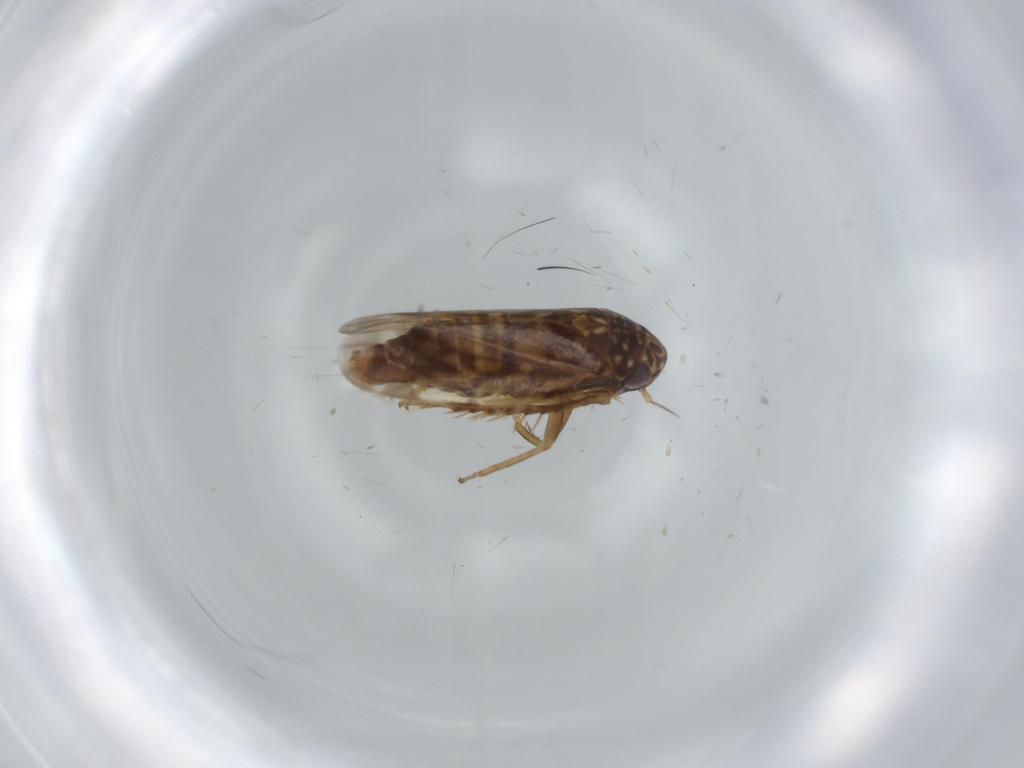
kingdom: Animalia
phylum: Arthropoda
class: Insecta
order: Hemiptera
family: Cicadellidae
